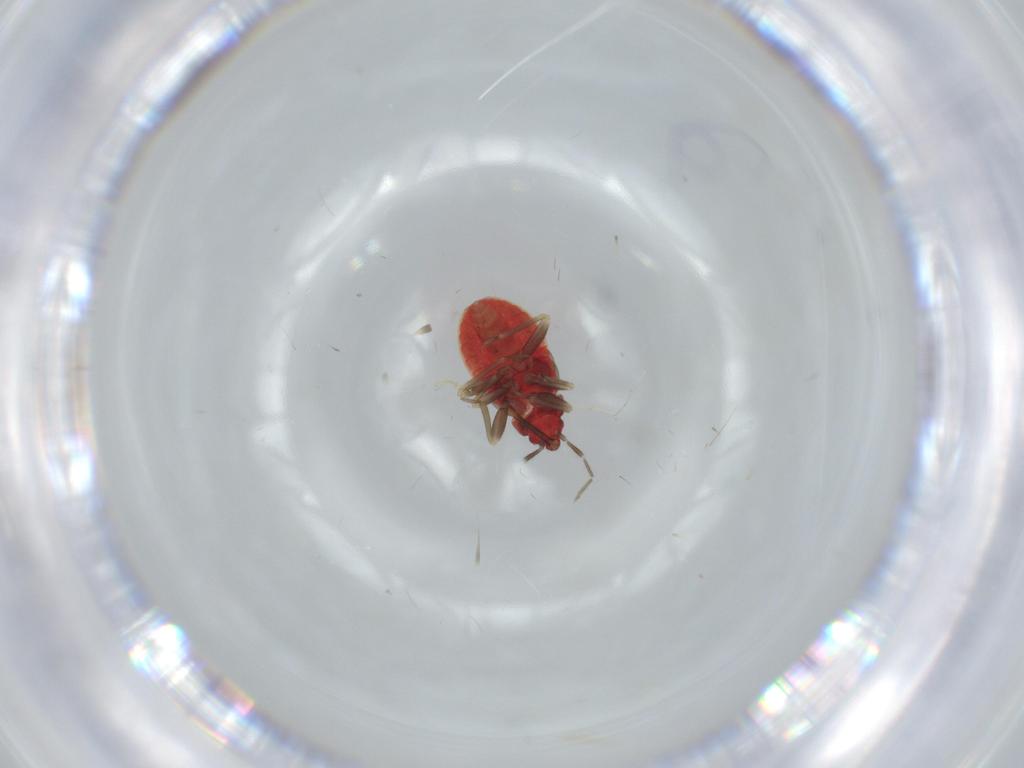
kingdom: Animalia
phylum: Arthropoda
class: Insecta
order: Hemiptera
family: Anthocoridae
